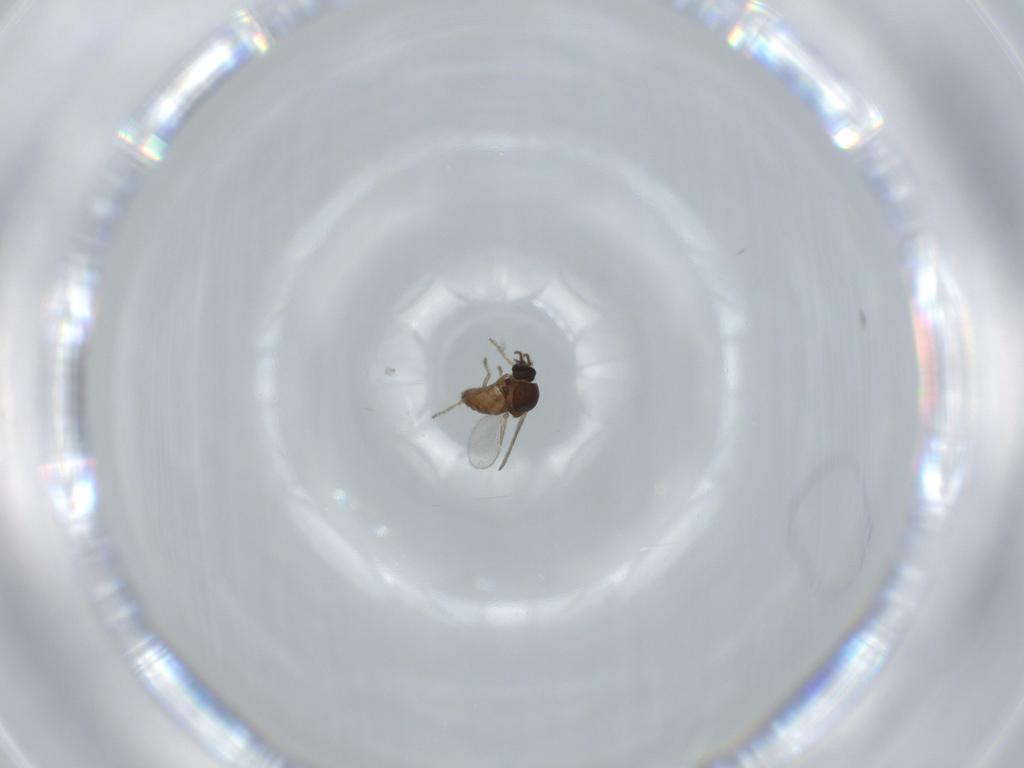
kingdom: Animalia
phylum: Arthropoda
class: Insecta
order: Diptera
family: Ceratopogonidae
